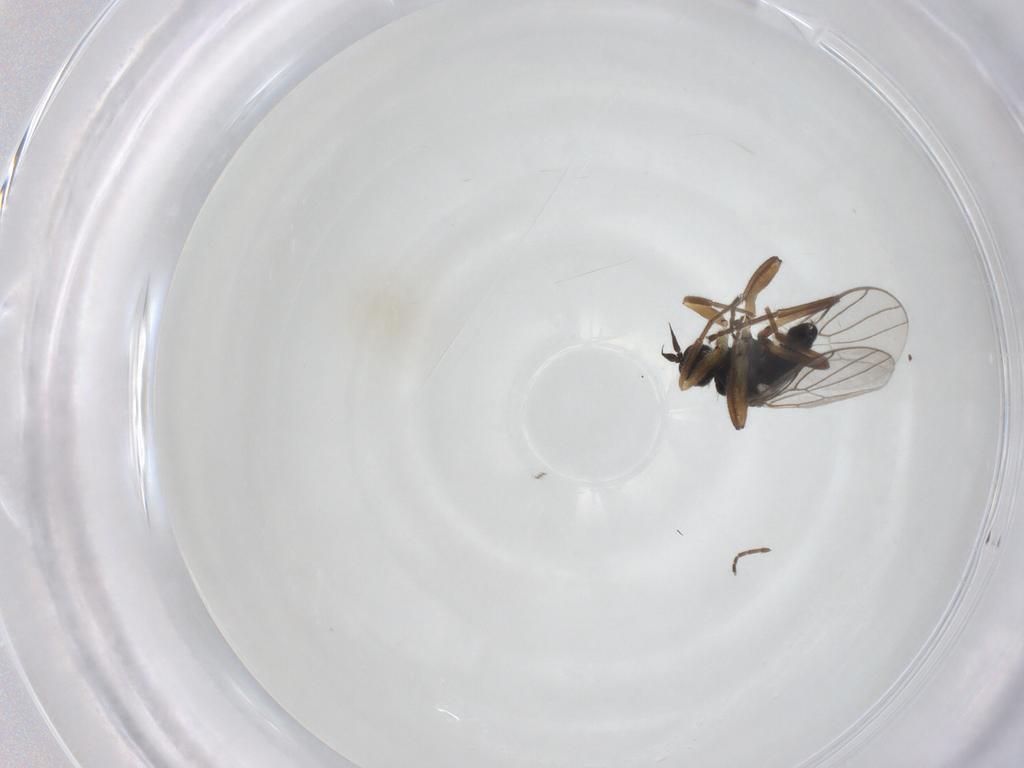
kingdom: Animalia
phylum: Arthropoda
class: Insecta
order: Diptera
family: Hybotidae
